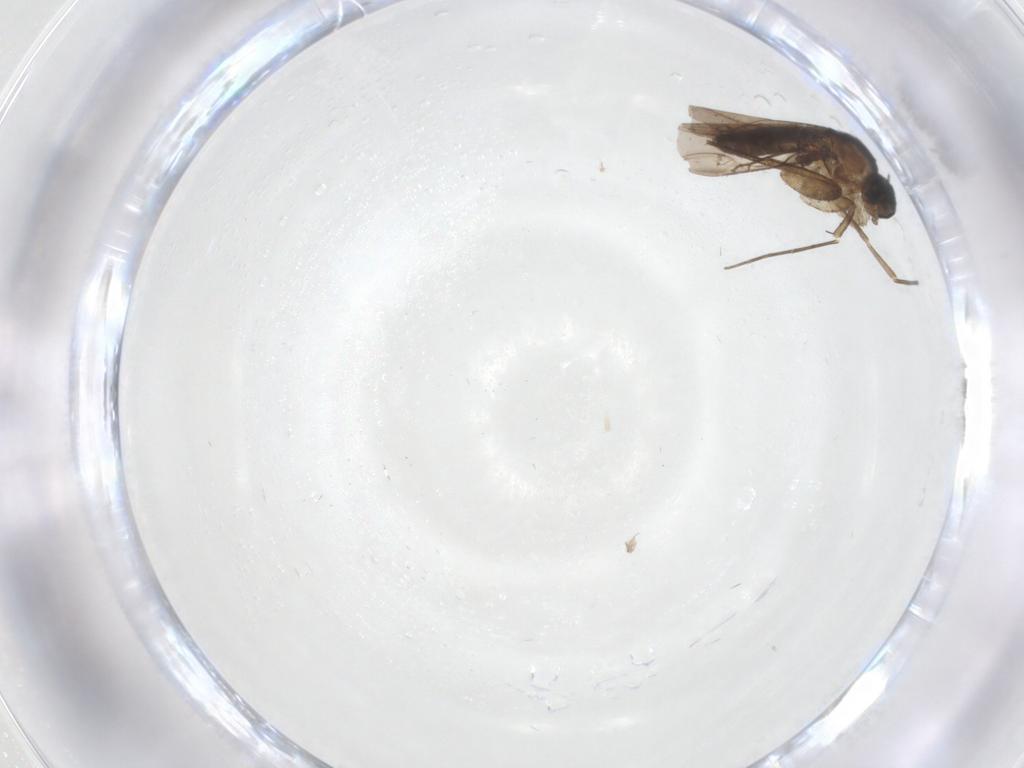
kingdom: Animalia
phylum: Arthropoda
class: Insecta
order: Diptera
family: Phoridae
